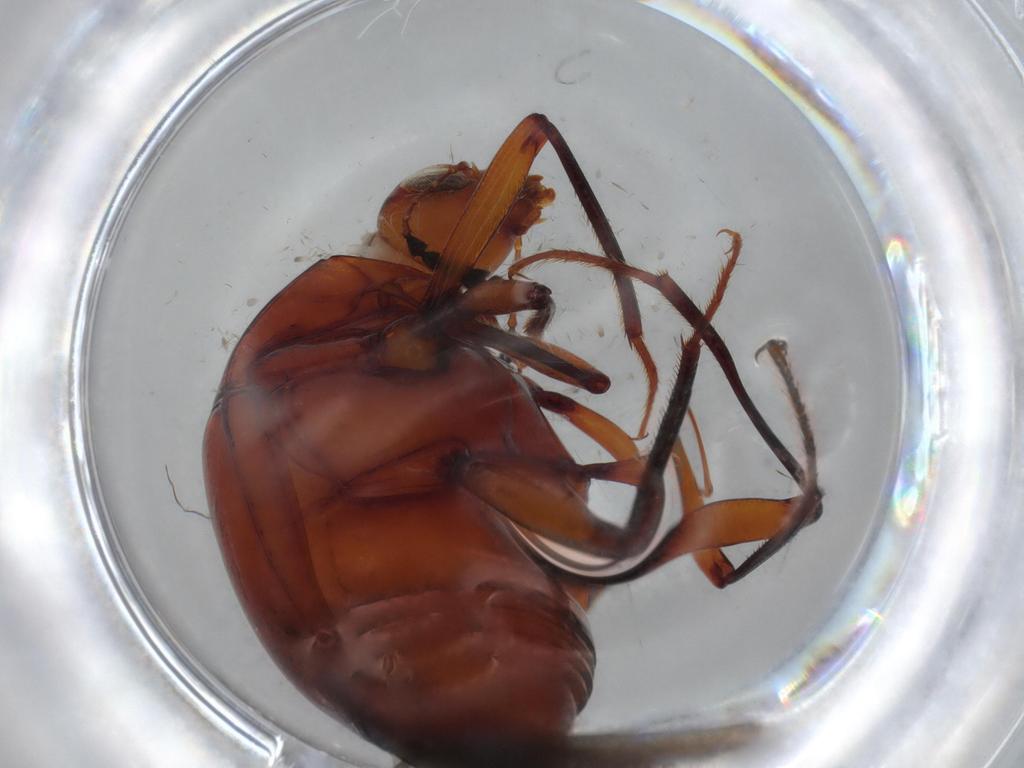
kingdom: Animalia
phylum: Arthropoda
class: Insecta
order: Coleoptera
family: Staphylinidae
